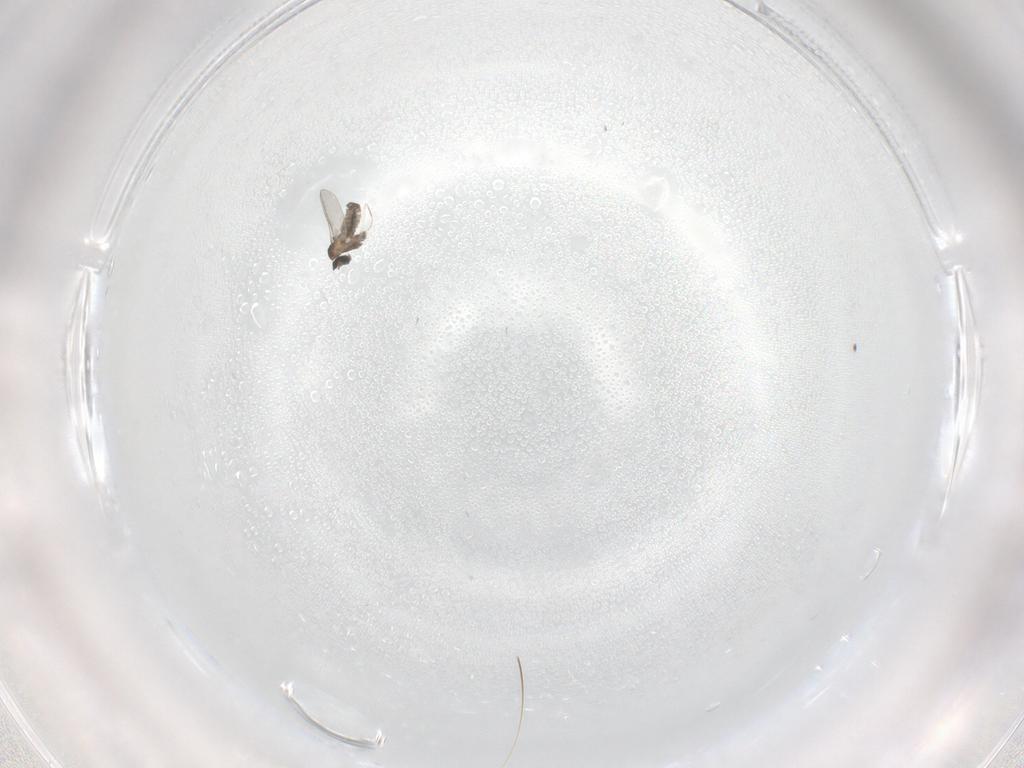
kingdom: Animalia
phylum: Arthropoda
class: Insecta
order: Diptera
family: Cecidomyiidae
